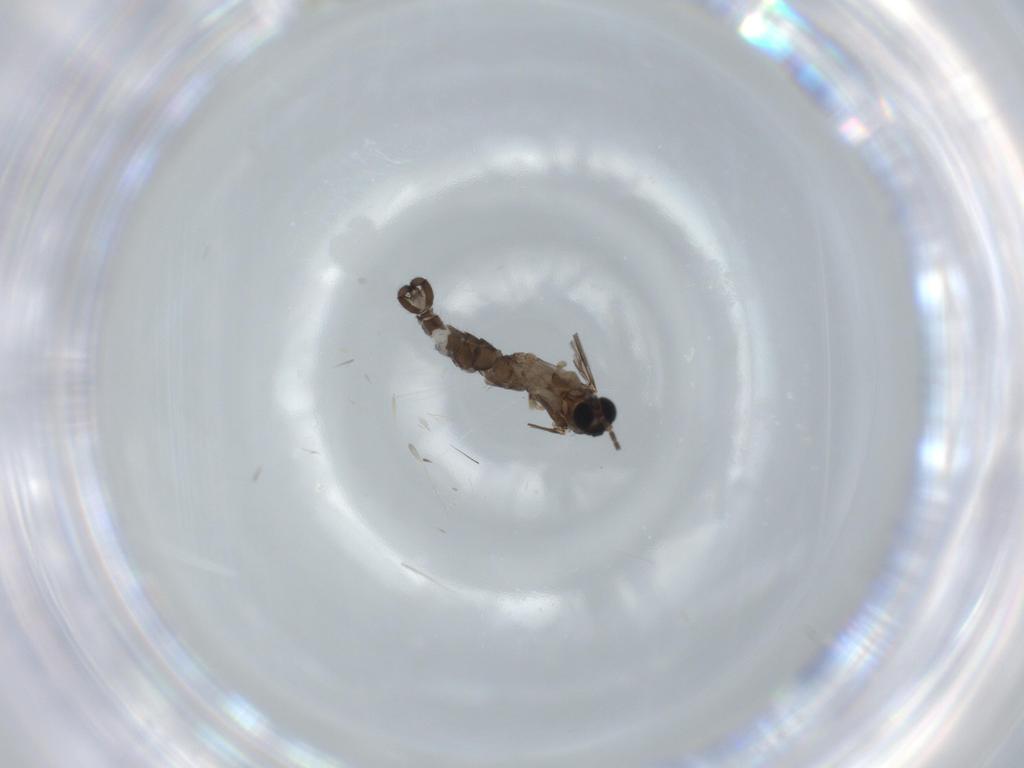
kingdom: Animalia
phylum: Arthropoda
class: Insecta
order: Diptera
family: Sciaridae
